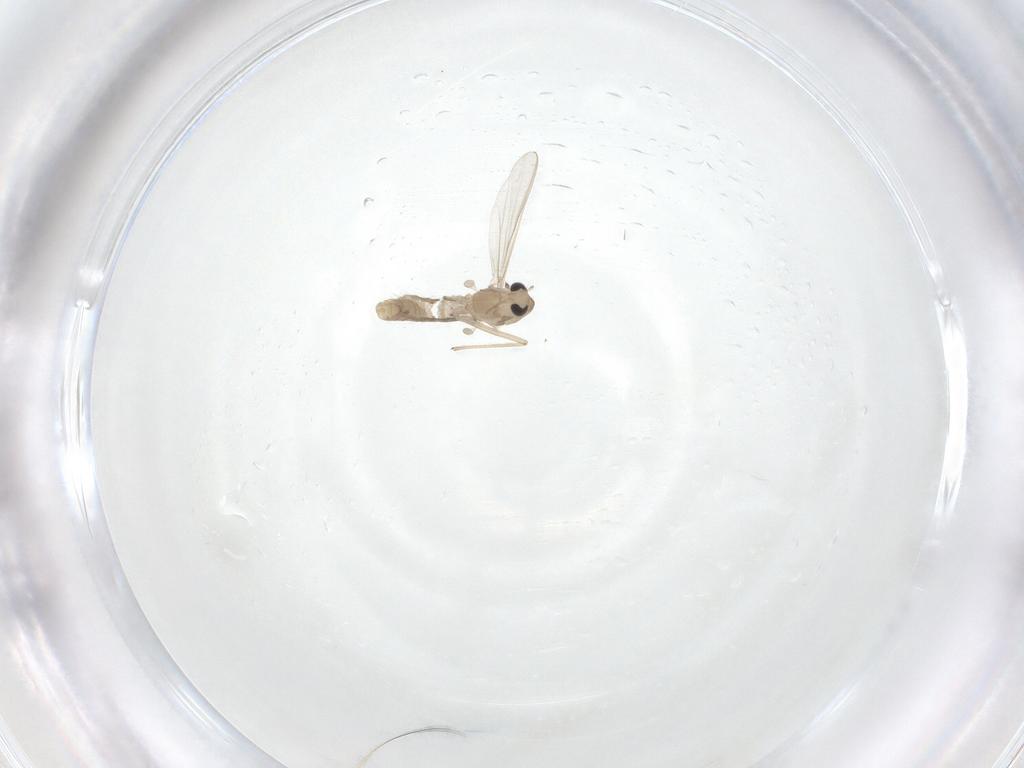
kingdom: Animalia
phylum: Arthropoda
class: Insecta
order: Diptera
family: Chironomidae
